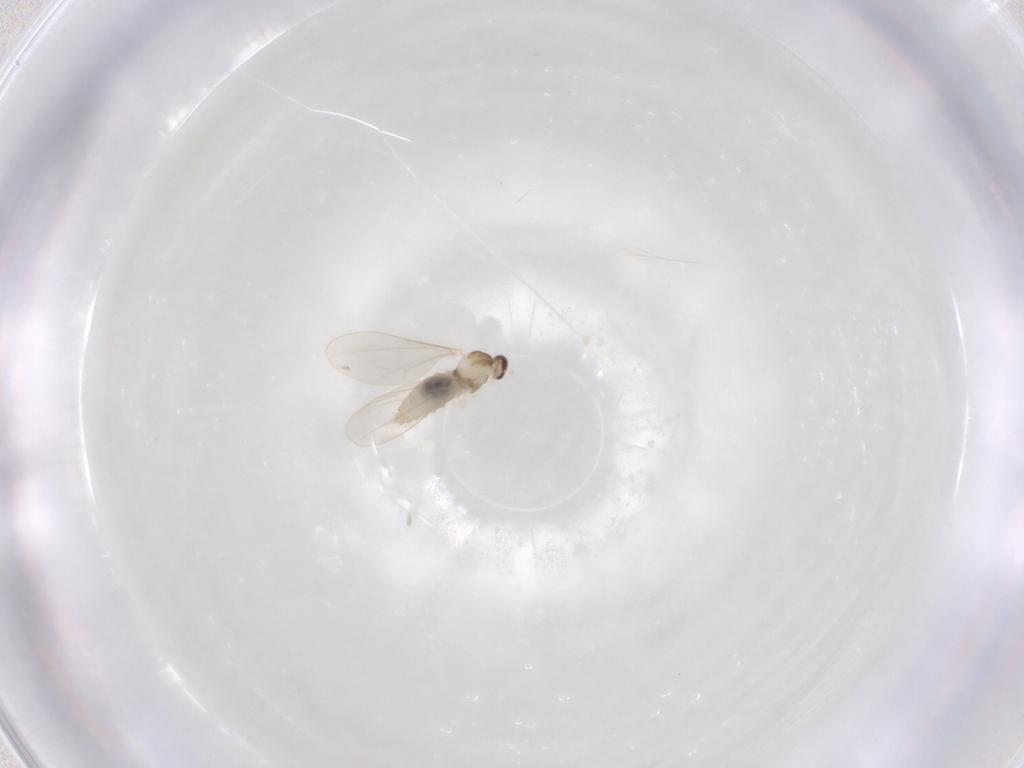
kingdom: Animalia
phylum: Arthropoda
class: Insecta
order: Diptera
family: Cecidomyiidae
